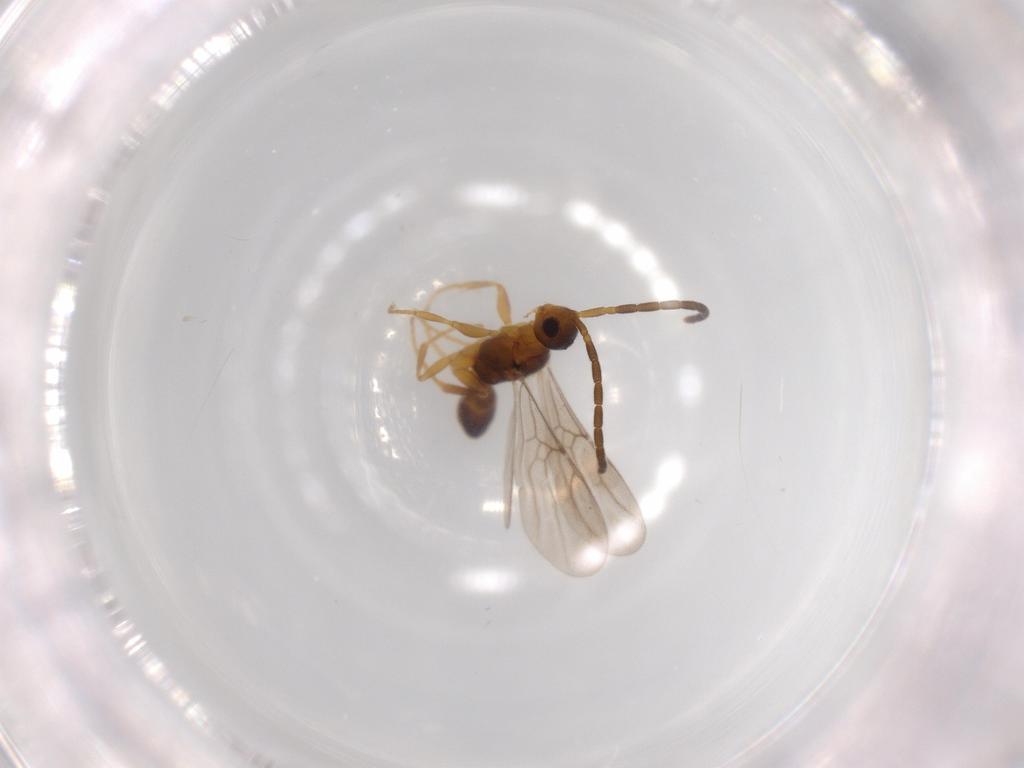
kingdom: Animalia
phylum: Arthropoda
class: Insecta
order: Hymenoptera
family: Embolemidae
